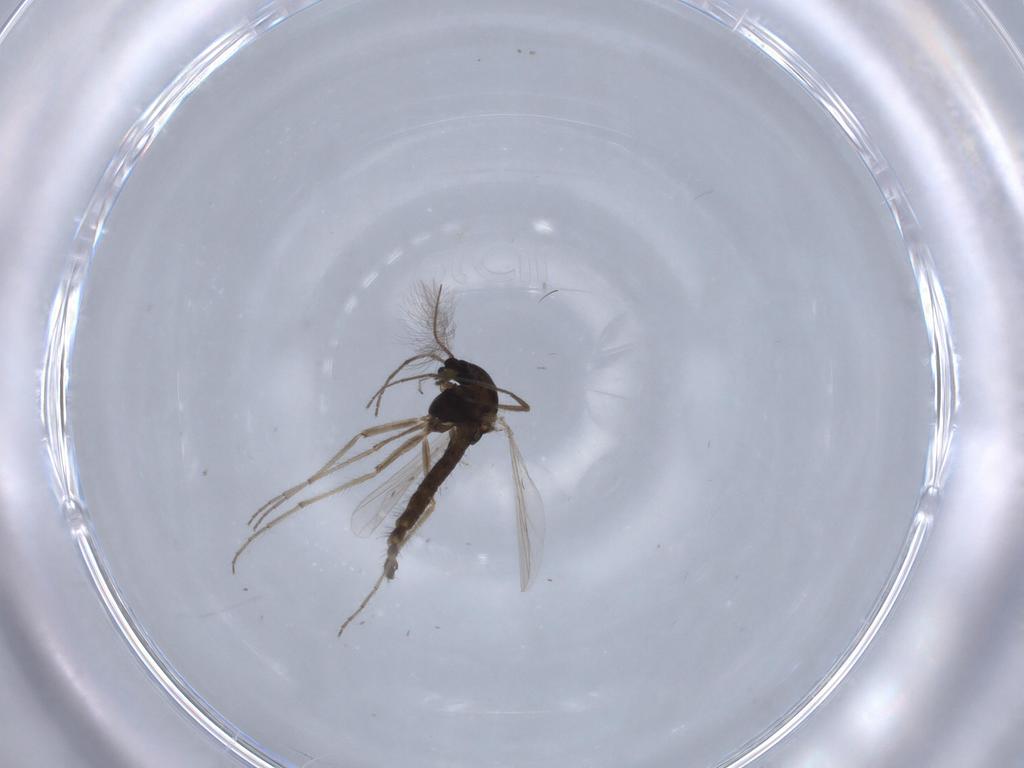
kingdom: Animalia
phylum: Arthropoda
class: Insecta
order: Diptera
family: Chironomidae
